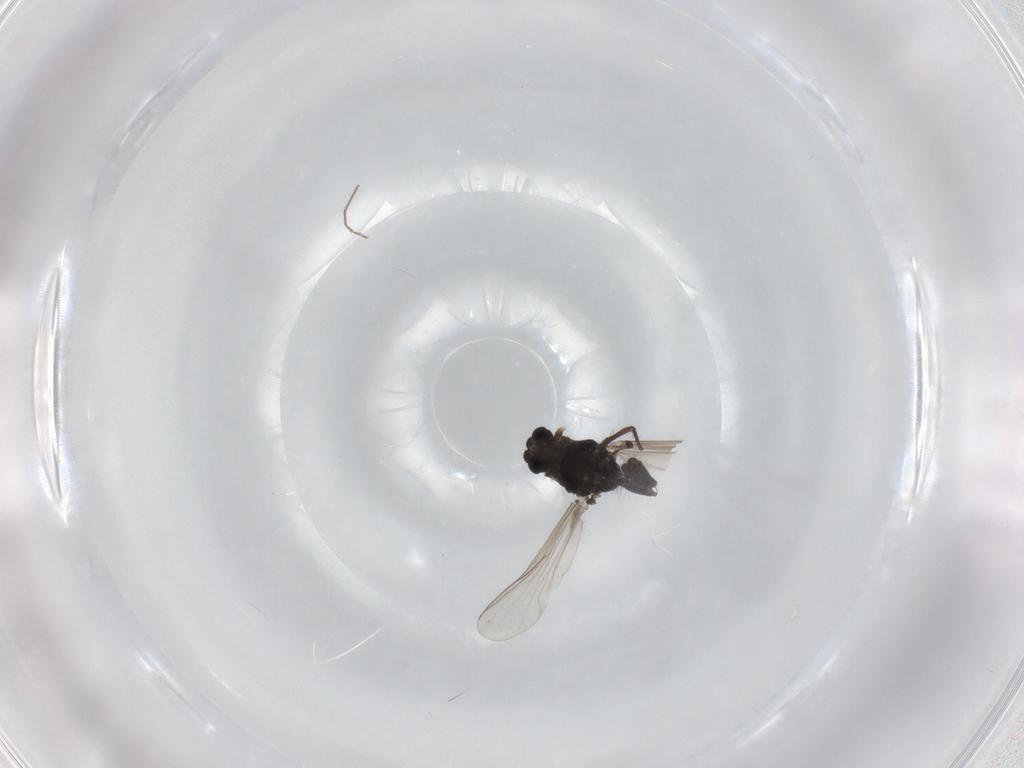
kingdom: Animalia
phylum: Arthropoda
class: Insecta
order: Diptera
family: Chironomidae
